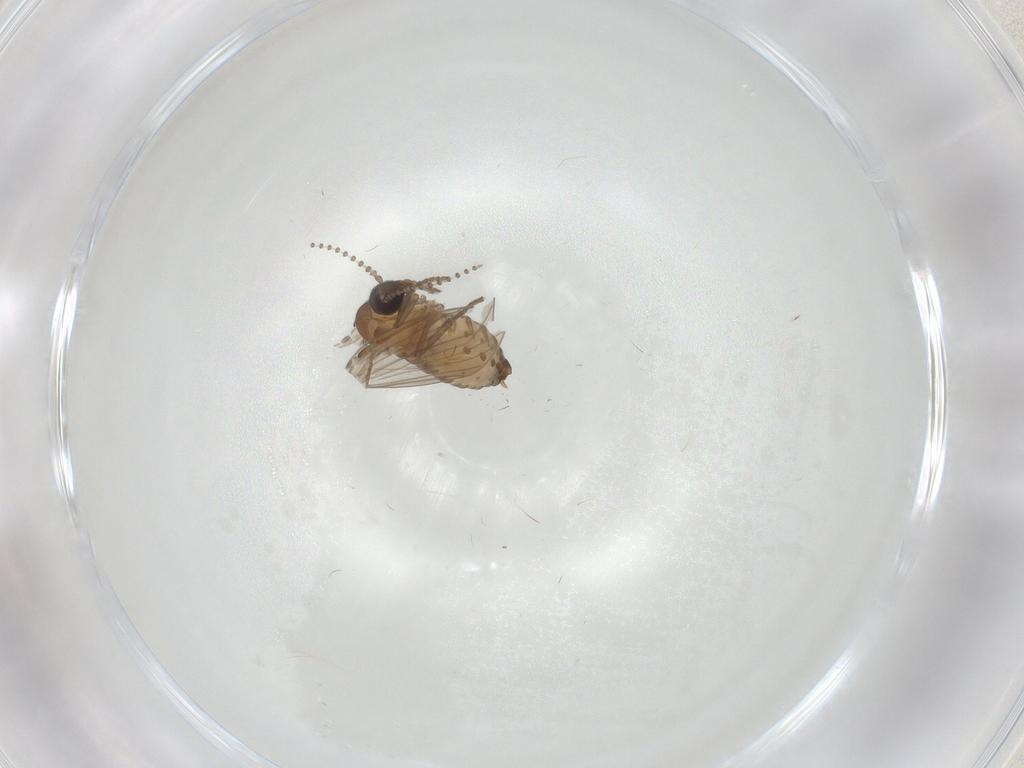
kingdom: Animalia
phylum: Arthropoda
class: Insecta
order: Diptera
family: Psychodidae
